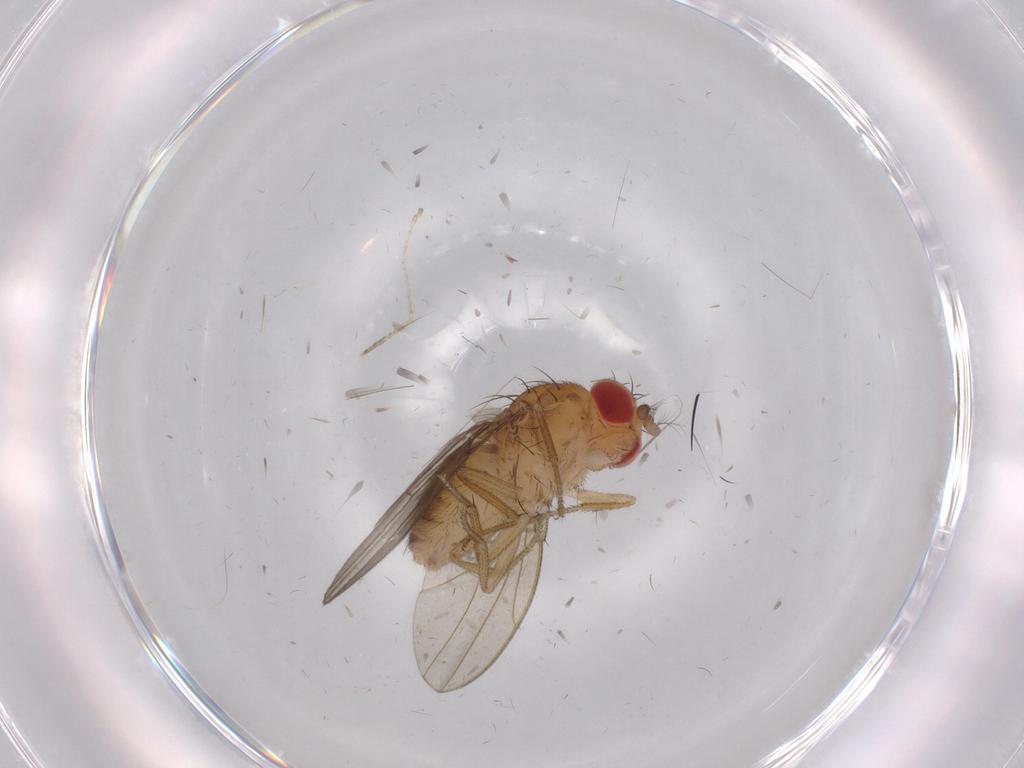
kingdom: Animalia
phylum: Arthropoda
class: Insecta
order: Diptera
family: Drosophilidae
